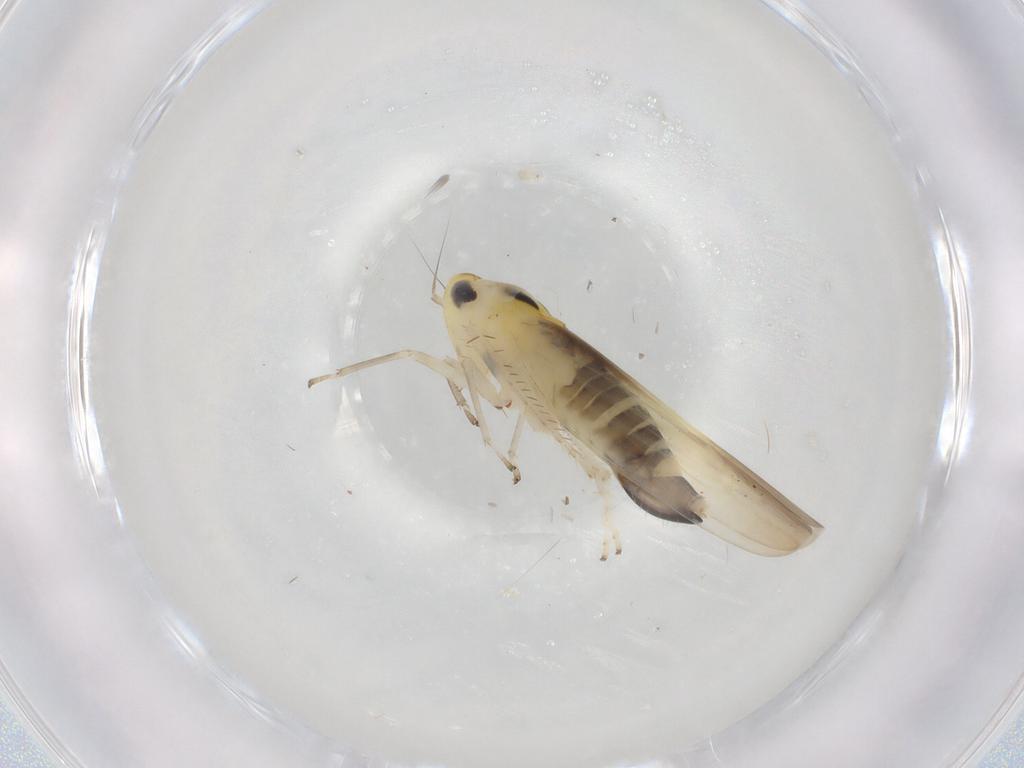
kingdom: Animalia
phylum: Arthropoda
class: Insecta
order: Hemiptera
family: Cicadellidae
